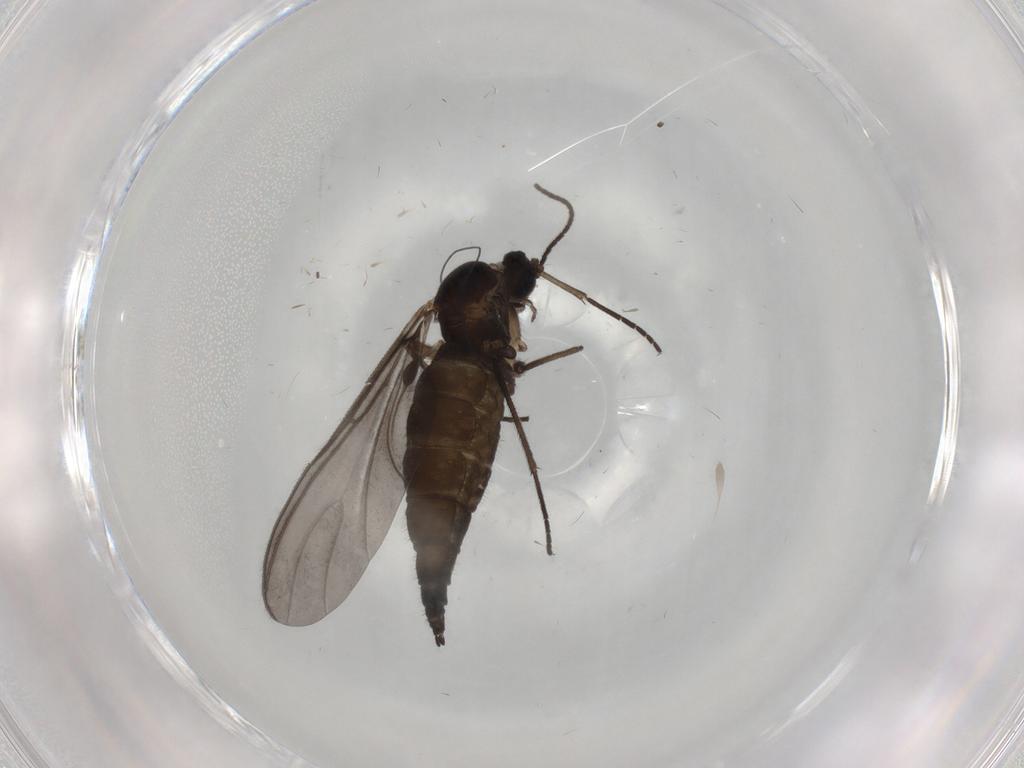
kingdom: Animalia
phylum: Arthropoda
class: Insecta
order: Diptera
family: Sciaridae
